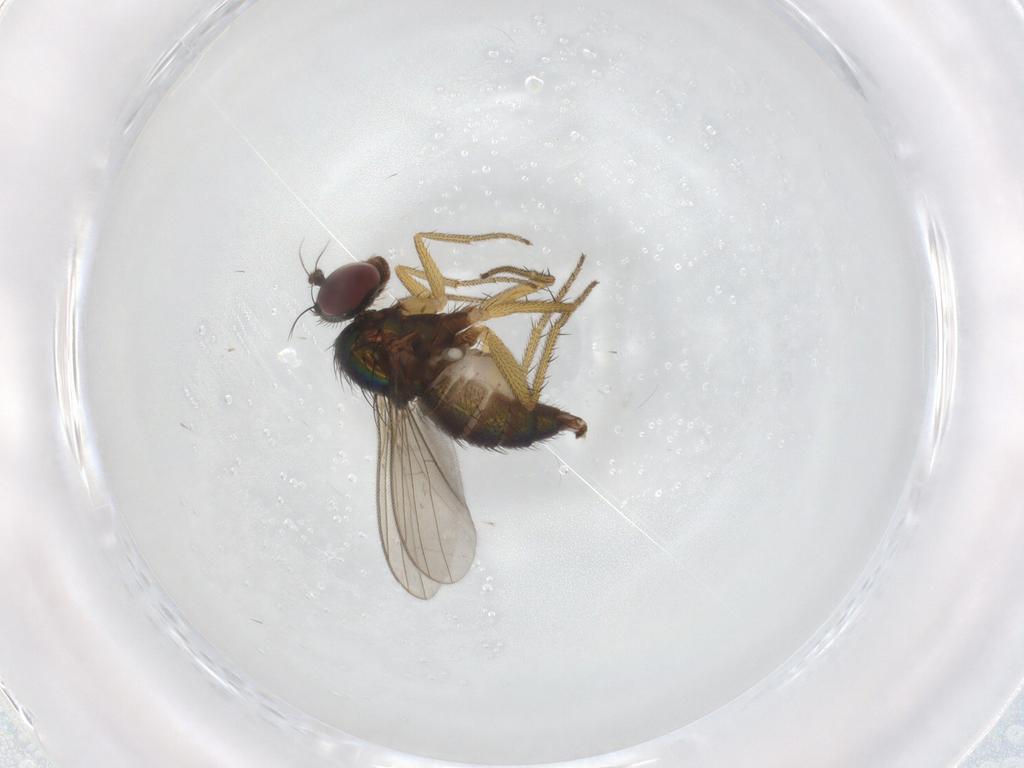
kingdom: Animalia
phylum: Arthropoda
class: Insecta
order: Diptera
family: Dolichopodidae
